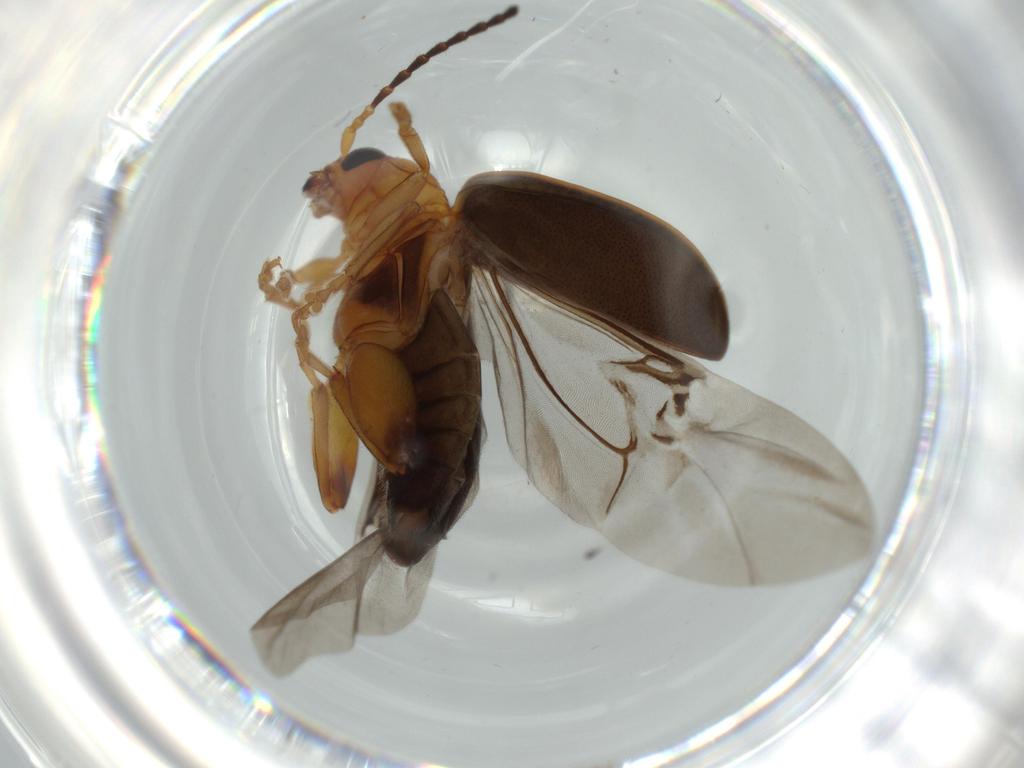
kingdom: Animalia
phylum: Arthropoda
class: Insecta
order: Coleoptera
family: Chrysomelidae
